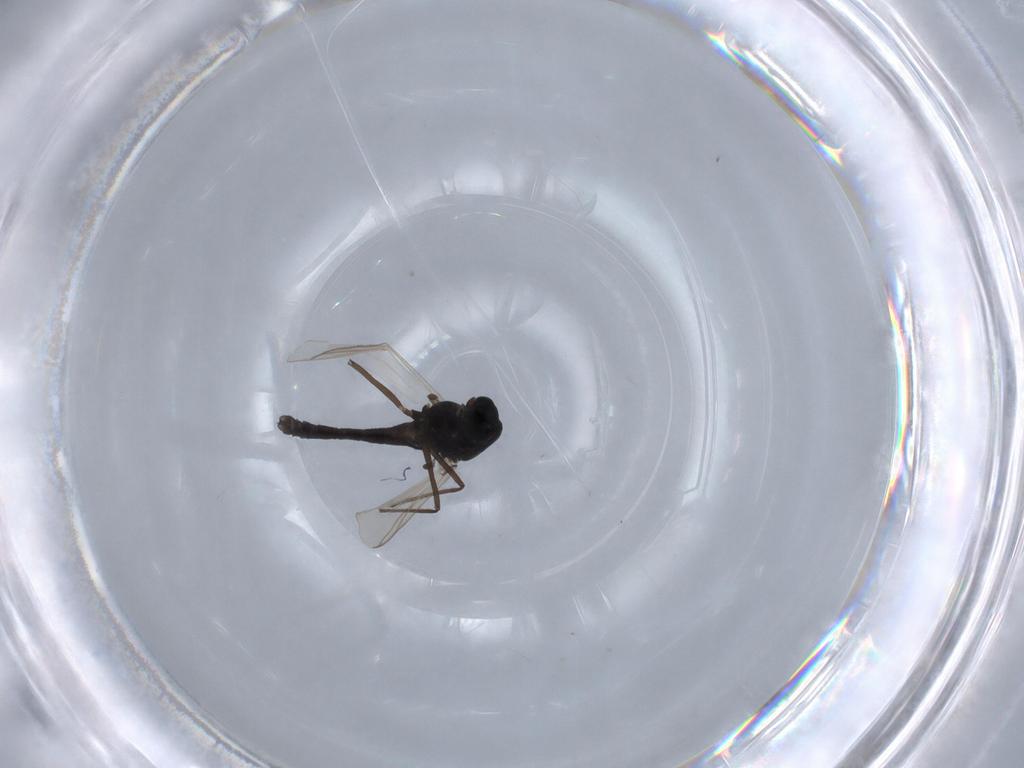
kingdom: Animalia
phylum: Arthropoda
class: Insecta
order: Diptera
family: Chironomidae
